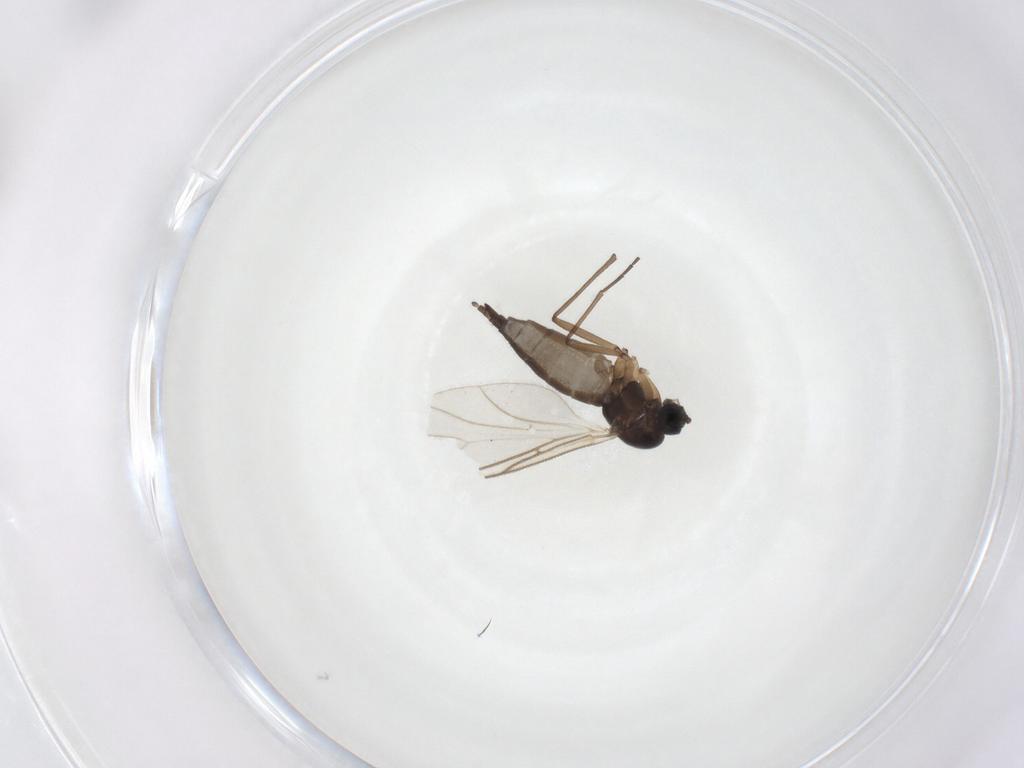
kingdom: Animalia
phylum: Arthropoda
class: Insecta
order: Diptera
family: Sciaridae
